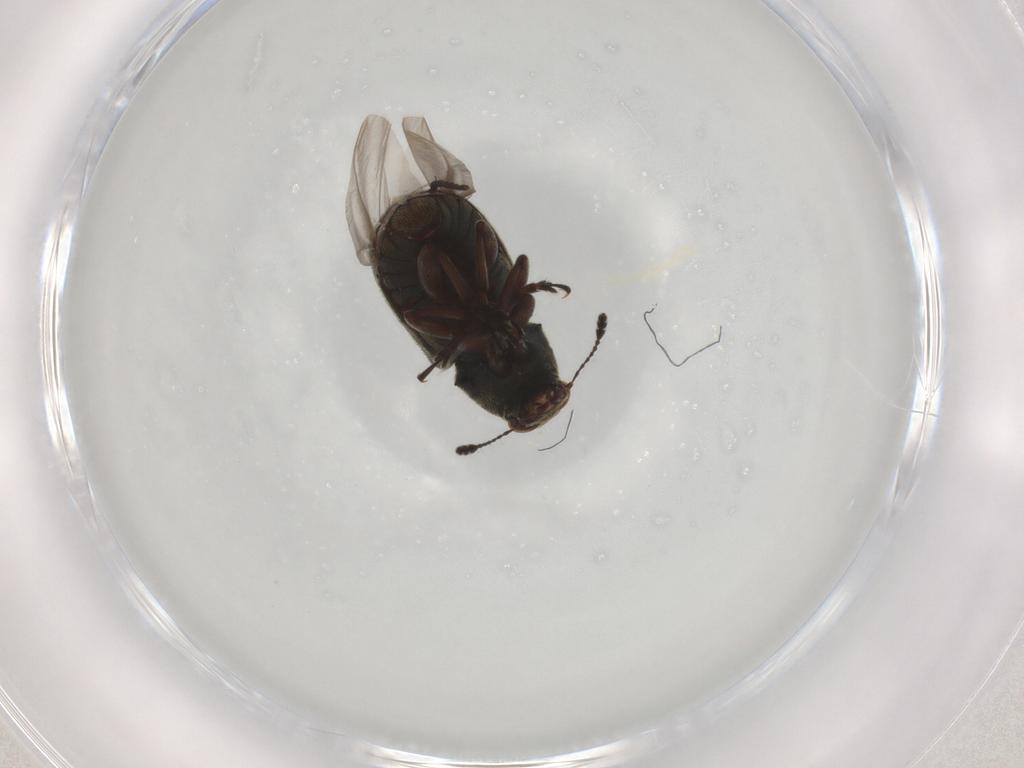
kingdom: Animalia
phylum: Arthropoda
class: Insecta
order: Coleoptera
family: Anthribidae
